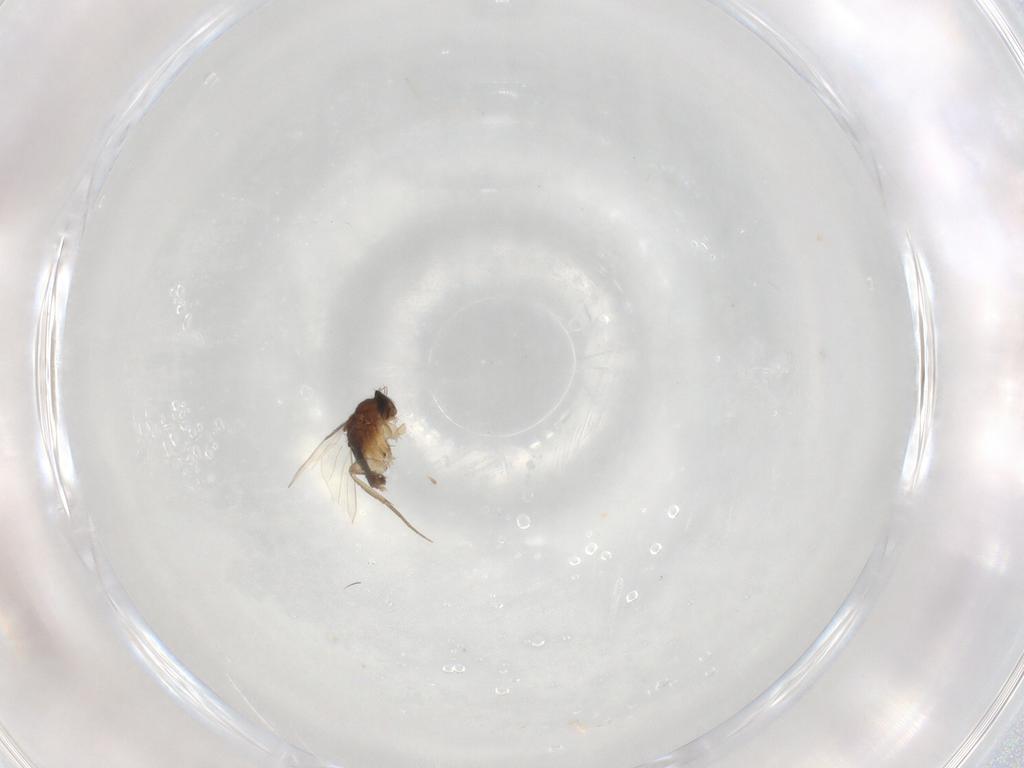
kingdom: Animalia
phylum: Arthropoda
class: Insecta
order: Diptera
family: Phoridae
